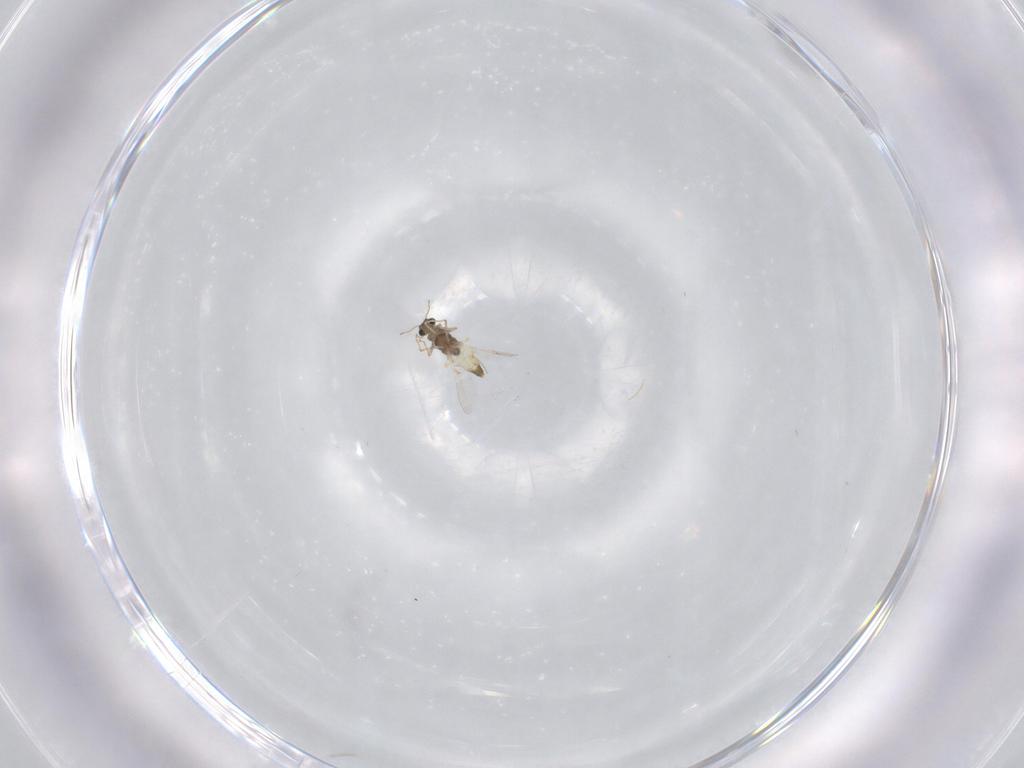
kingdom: Animalia
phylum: Arthropoda
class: Insecta
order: Diptera
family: Chironomidae
